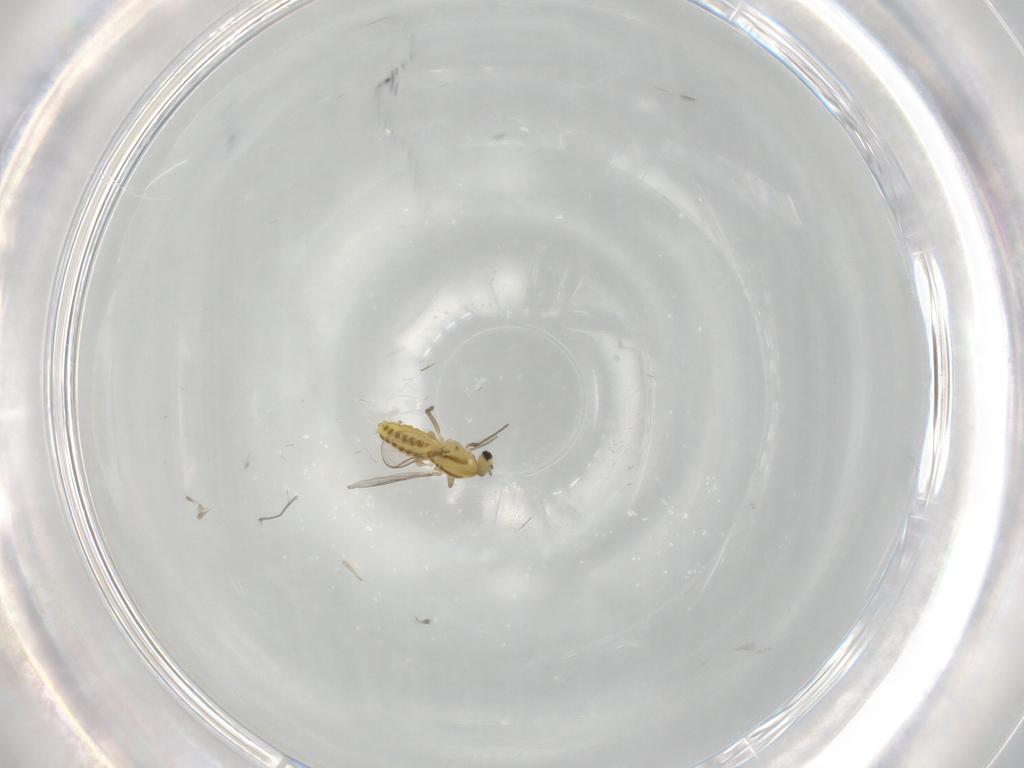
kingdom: Animalia
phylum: Arthropoda
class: Insecta
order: Diptera
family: Chironomidae
